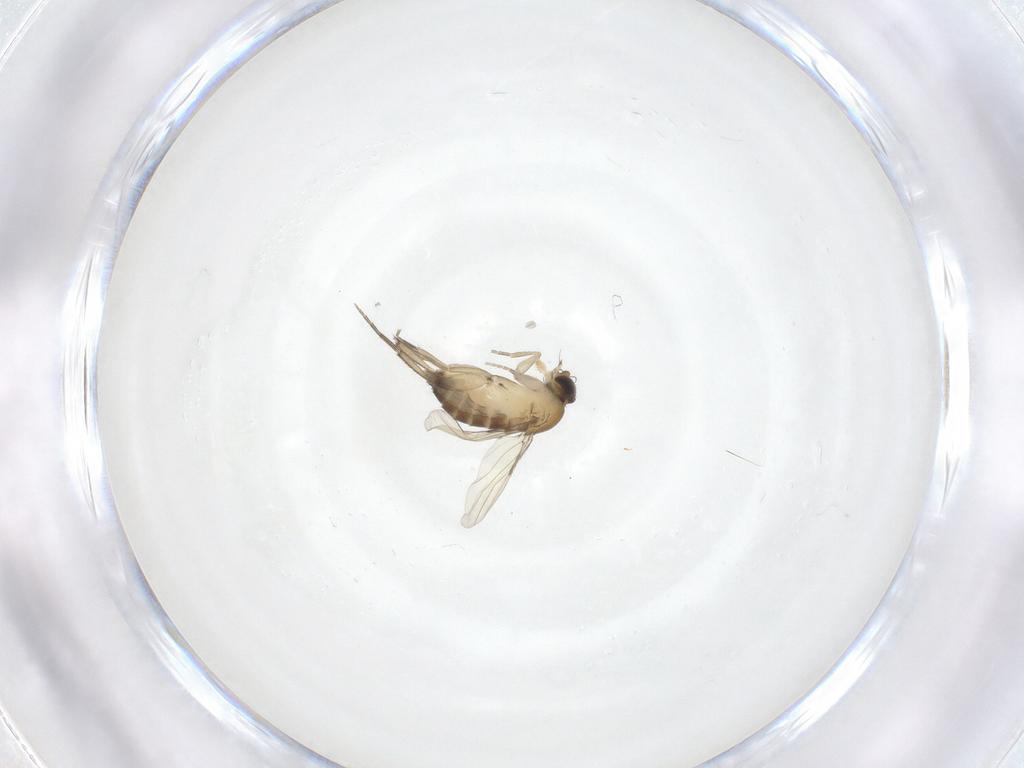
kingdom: Animalia
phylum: Arthropoda
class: Insecta
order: Diptera
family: Phoridae
